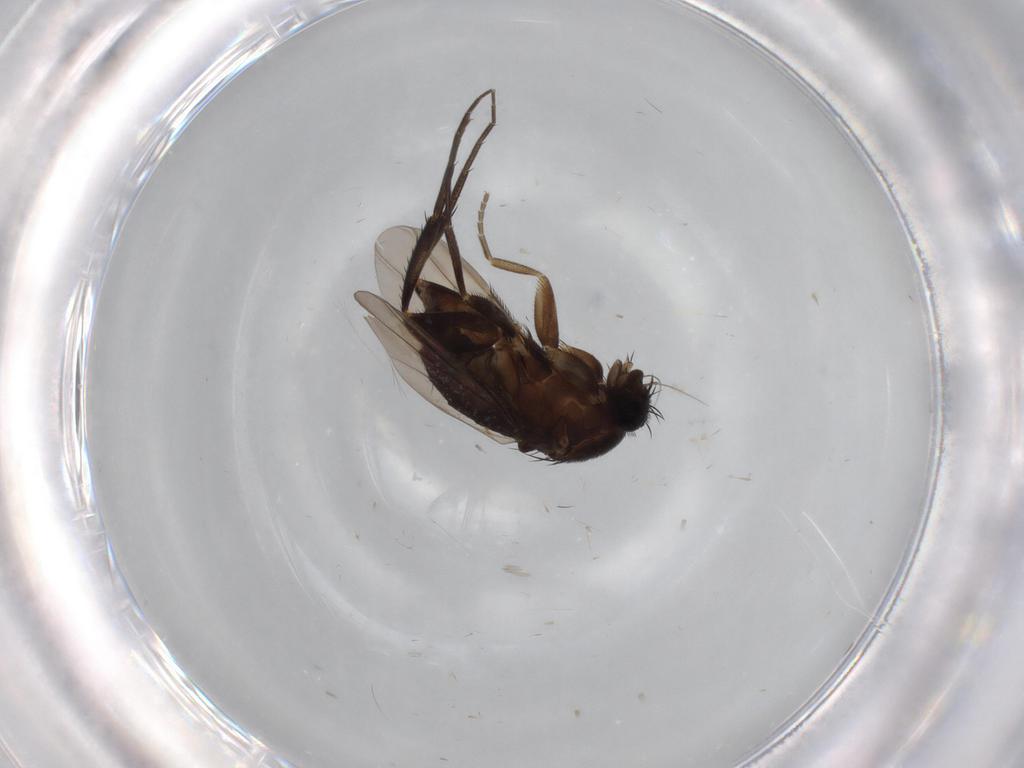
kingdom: Animalia
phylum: Arthropoda
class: Insecta
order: Diptera
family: Phoridae
